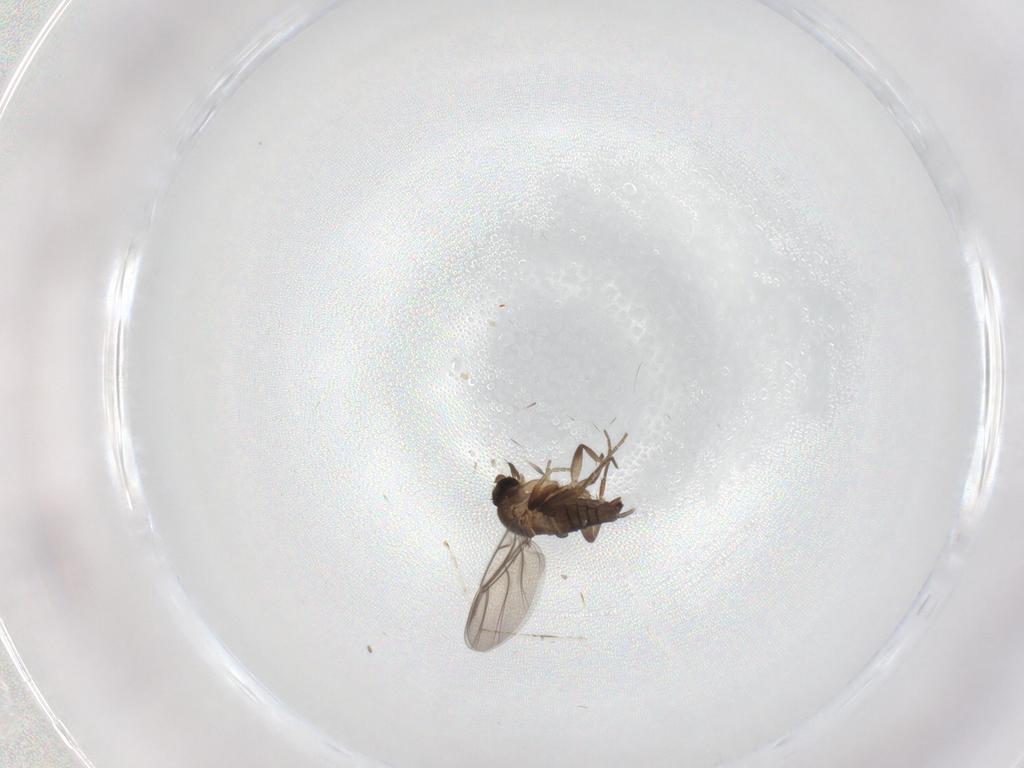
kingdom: Animalia
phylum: Arthropoda
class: Insecta
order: Diptera
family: Cecidomyiidae
